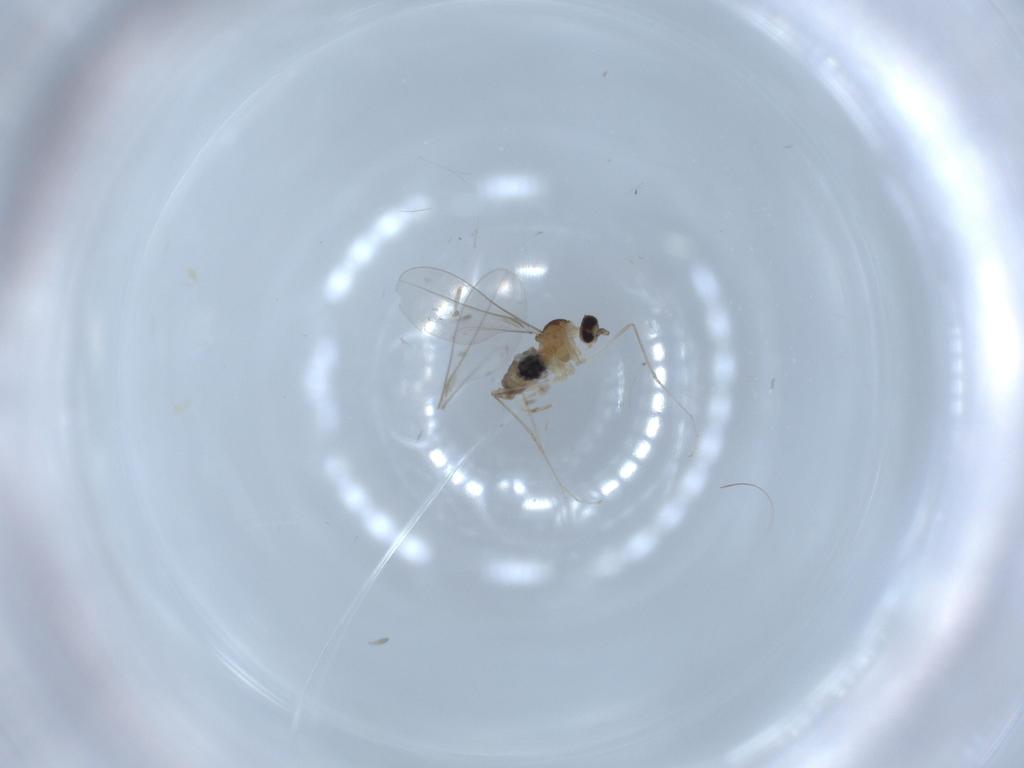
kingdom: Animalia
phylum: Arthropoda
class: Insecta
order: Diptera
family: Cecidomyiidae
